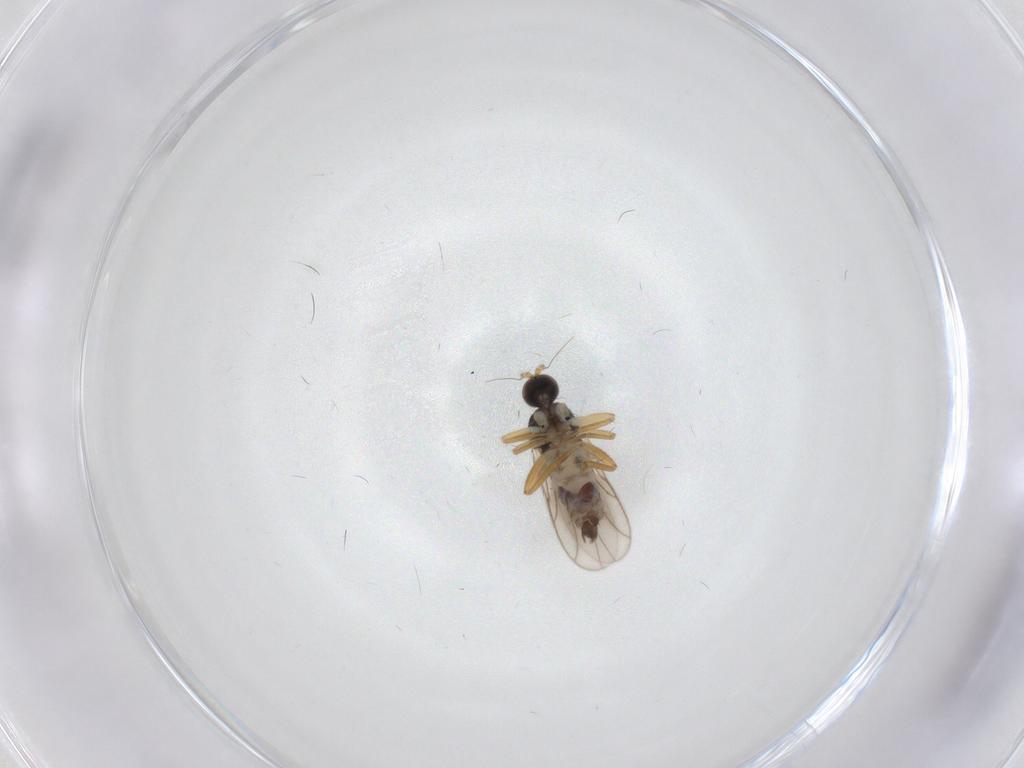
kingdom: Animalia
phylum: Arthropoda
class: Insecta
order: Diptera
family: Hybotidae
